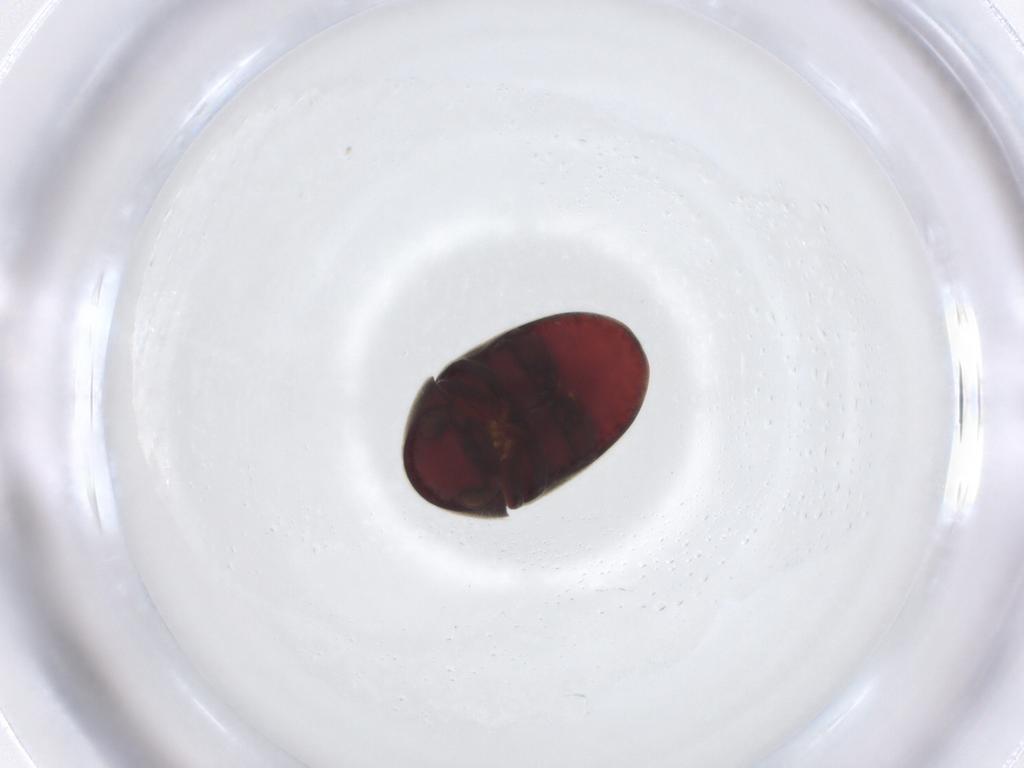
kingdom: Animalia
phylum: Arthropoda
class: Insecta
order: Coleoptera
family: Ptinidae
